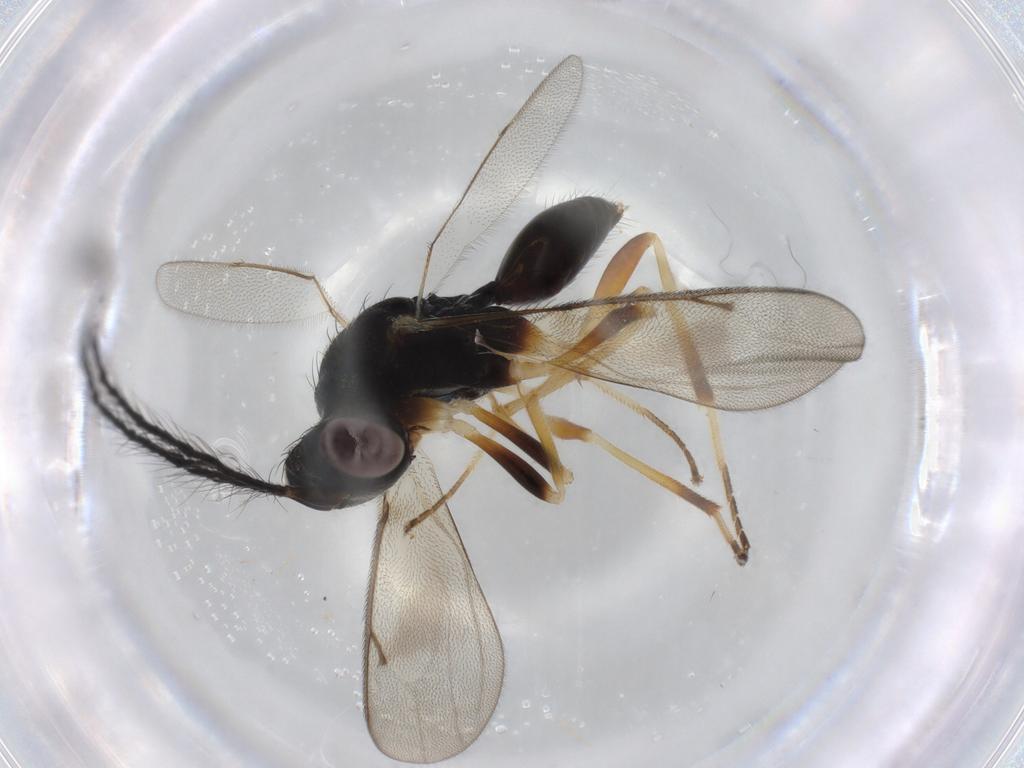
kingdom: Animalia
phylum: Arthropoda
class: Insecta
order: Hymenoptera
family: Diparidae
